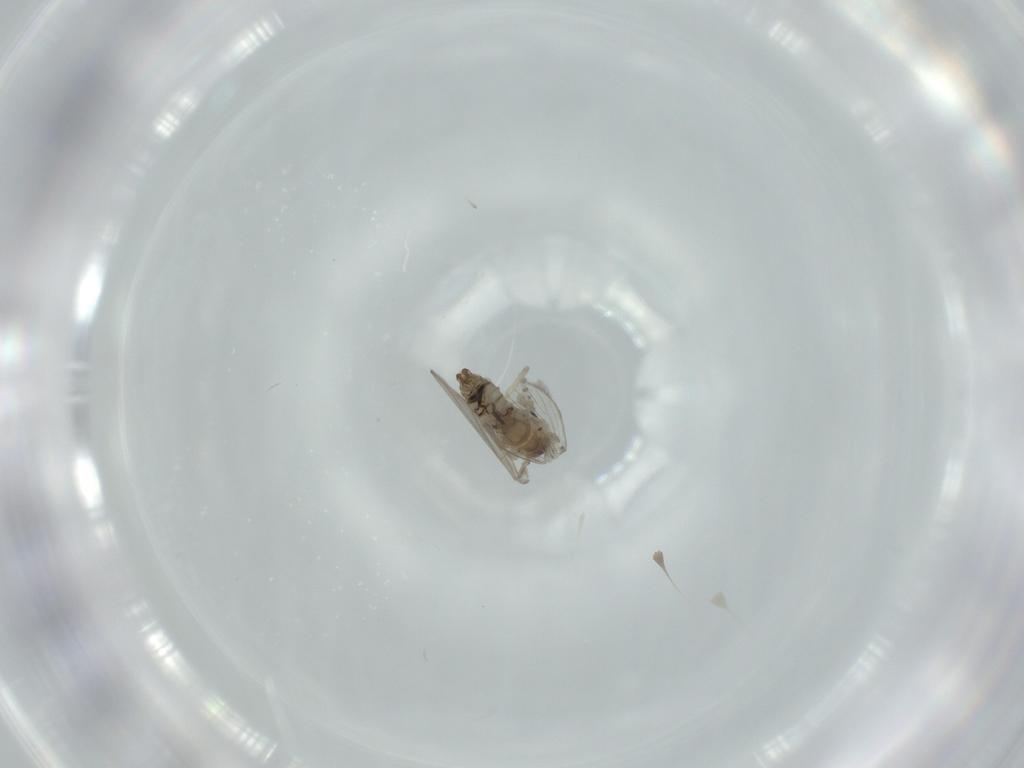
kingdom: Animalia
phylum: Arthropoda
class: Insecta
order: Diptera
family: Psychodidae
